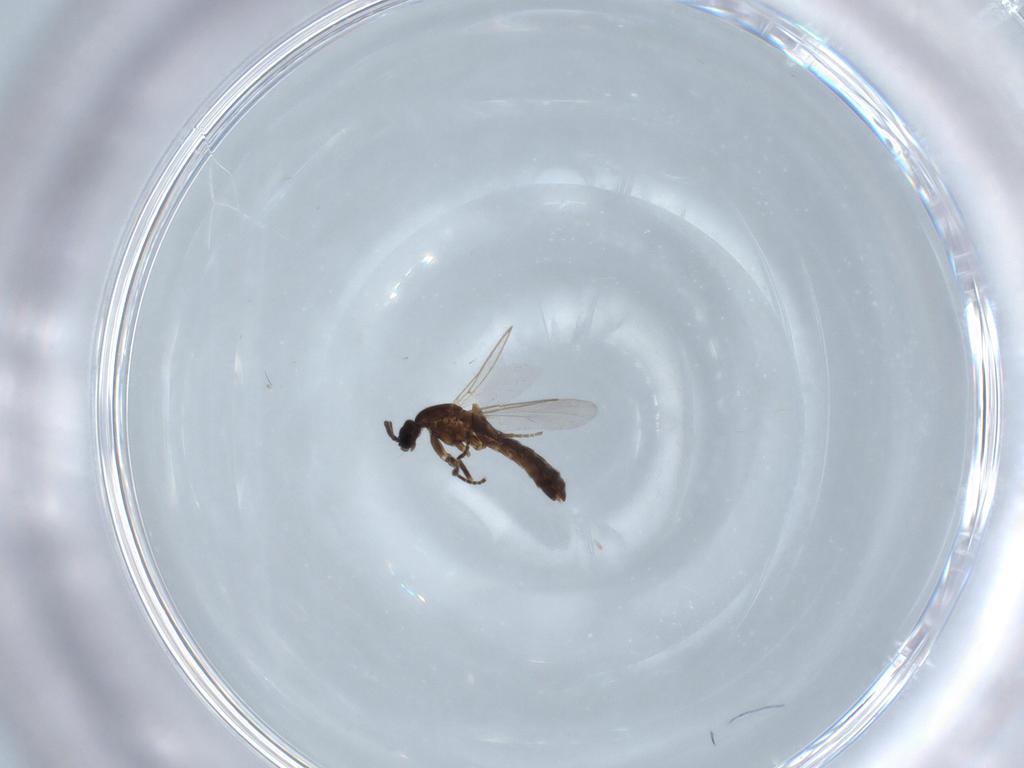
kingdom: Animalia
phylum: Arthropoda
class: Insecta
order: Diptera
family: Scatopsidae
